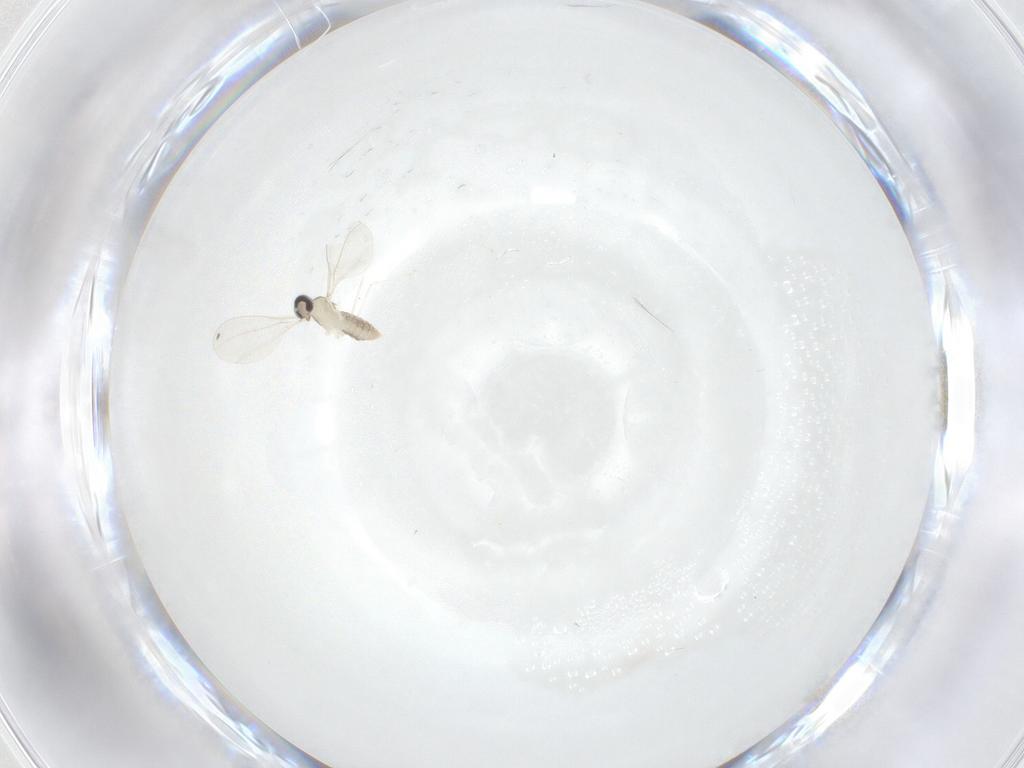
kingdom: Animalia
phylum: Arthropoda
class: Insecta
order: Diptera
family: Cecidomyiidae
